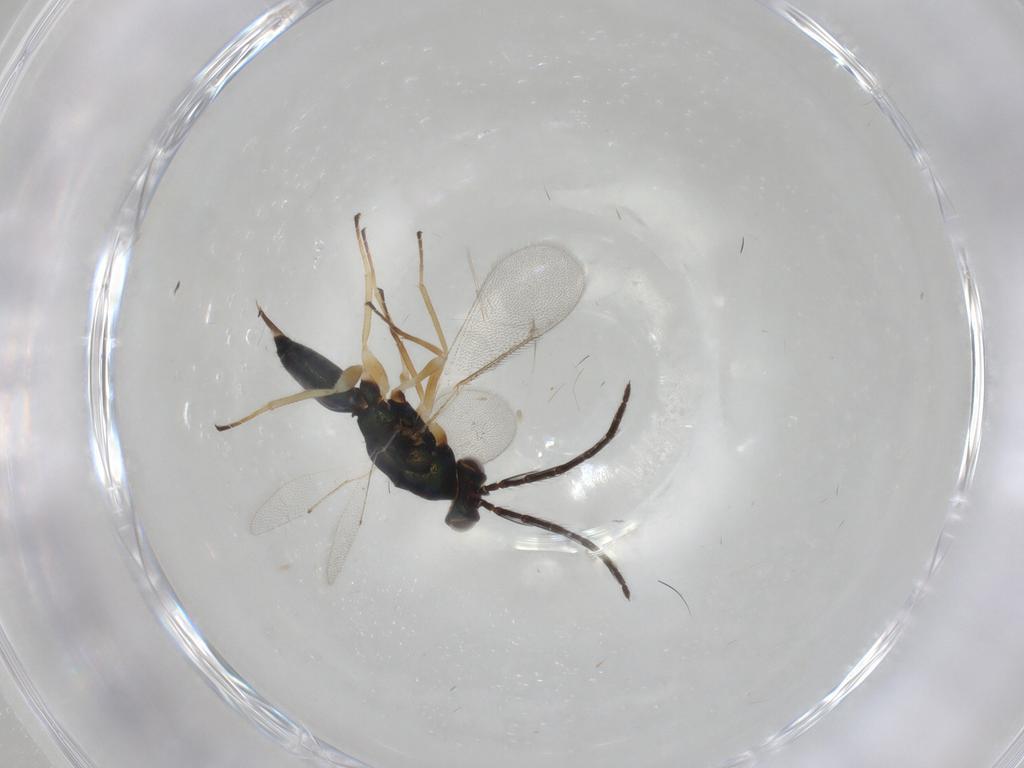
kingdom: Animalia
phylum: Arthropoda
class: Insecta
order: Hymenoptera
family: Eulophidae
